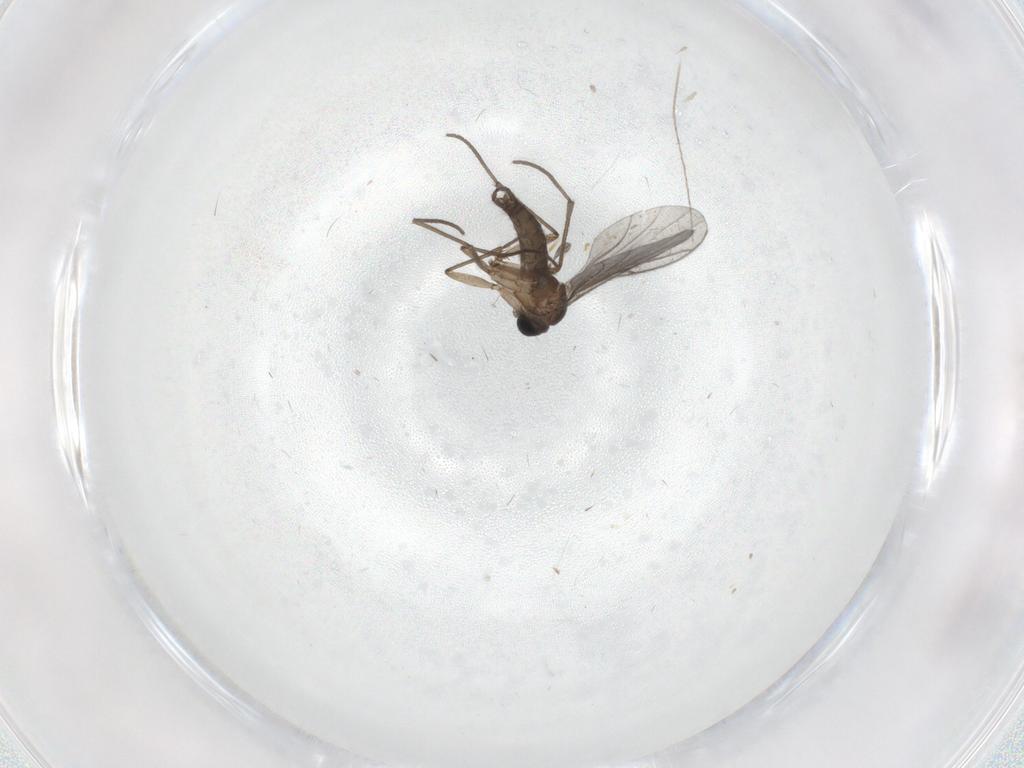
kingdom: Animalia
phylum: Arthropoda
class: Insecta
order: Diptera
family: Sciaridae
